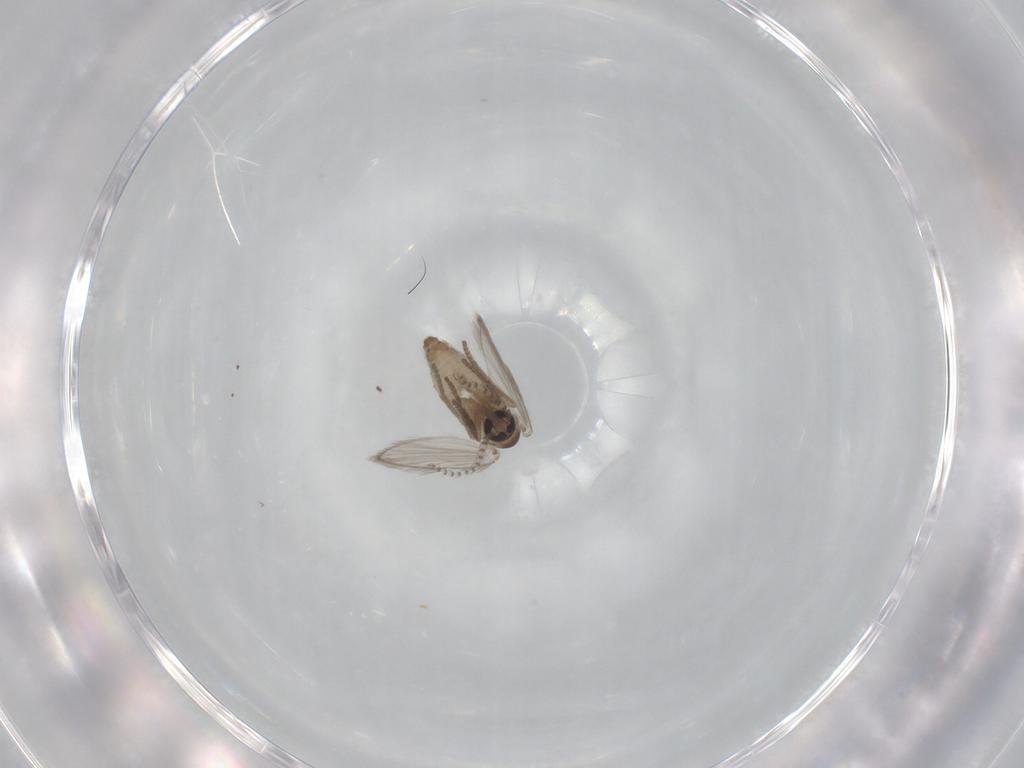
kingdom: Animalia
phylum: Arthropoda
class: Insecta
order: Diptera
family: Psychodidae
